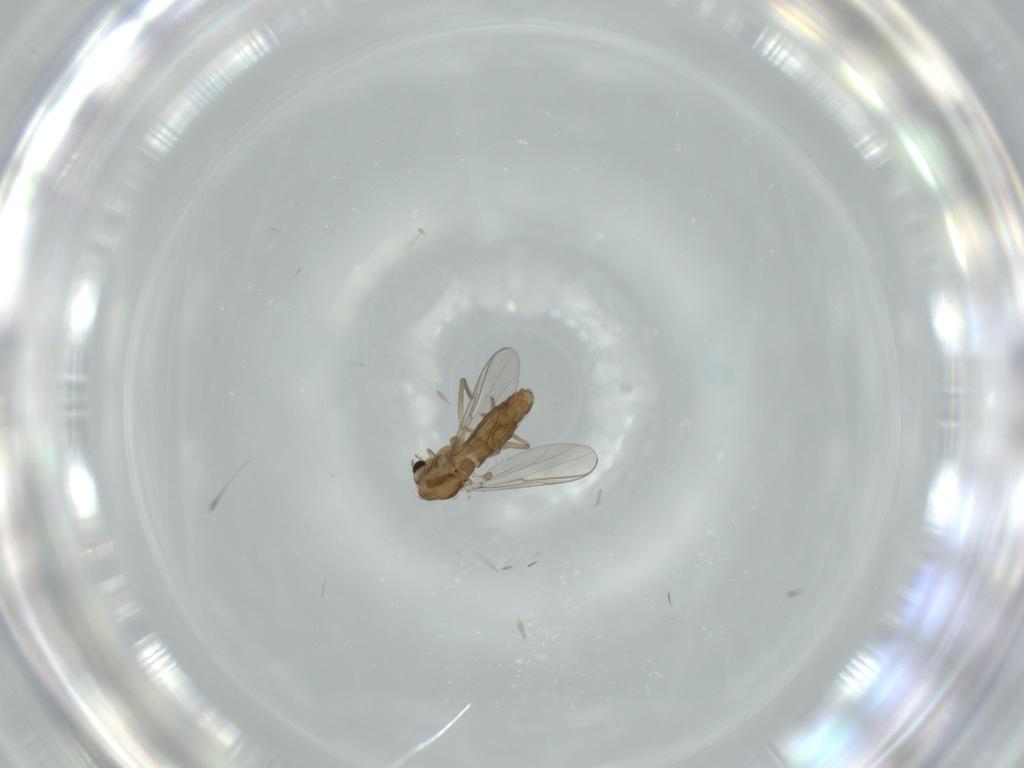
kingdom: Animalia
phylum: Arthropoda
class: Insecta
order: Diptera
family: Chironomidae
